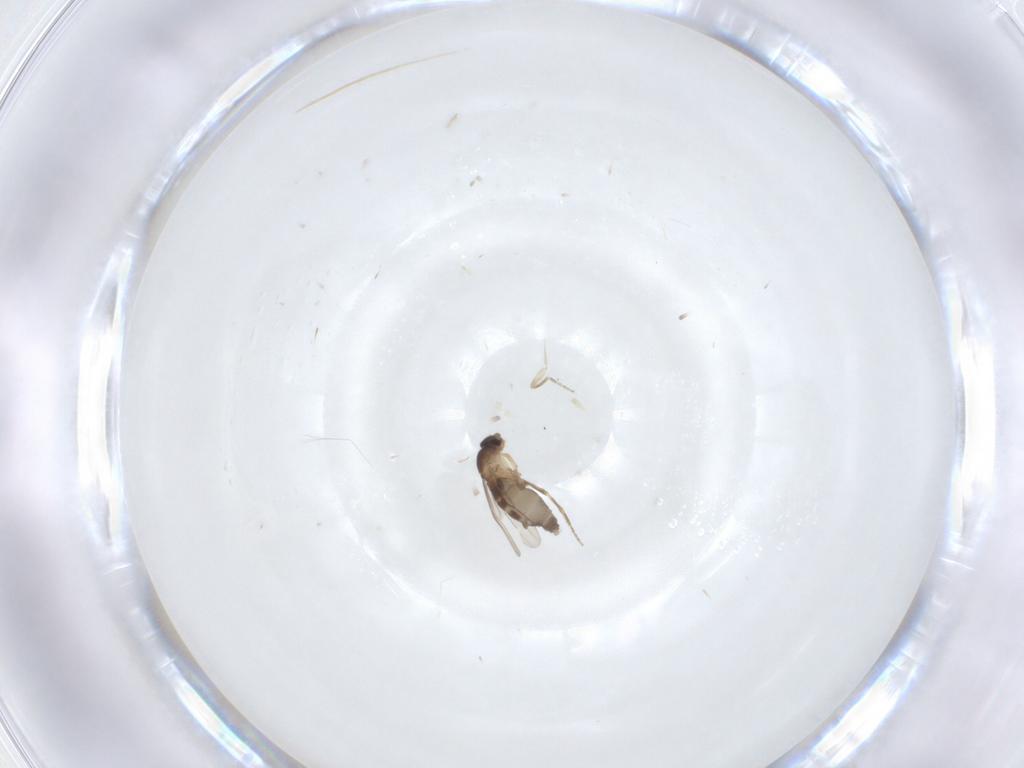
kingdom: Animalia
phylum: Arthropoda
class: Insecta
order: Diptera
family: Phoridae
